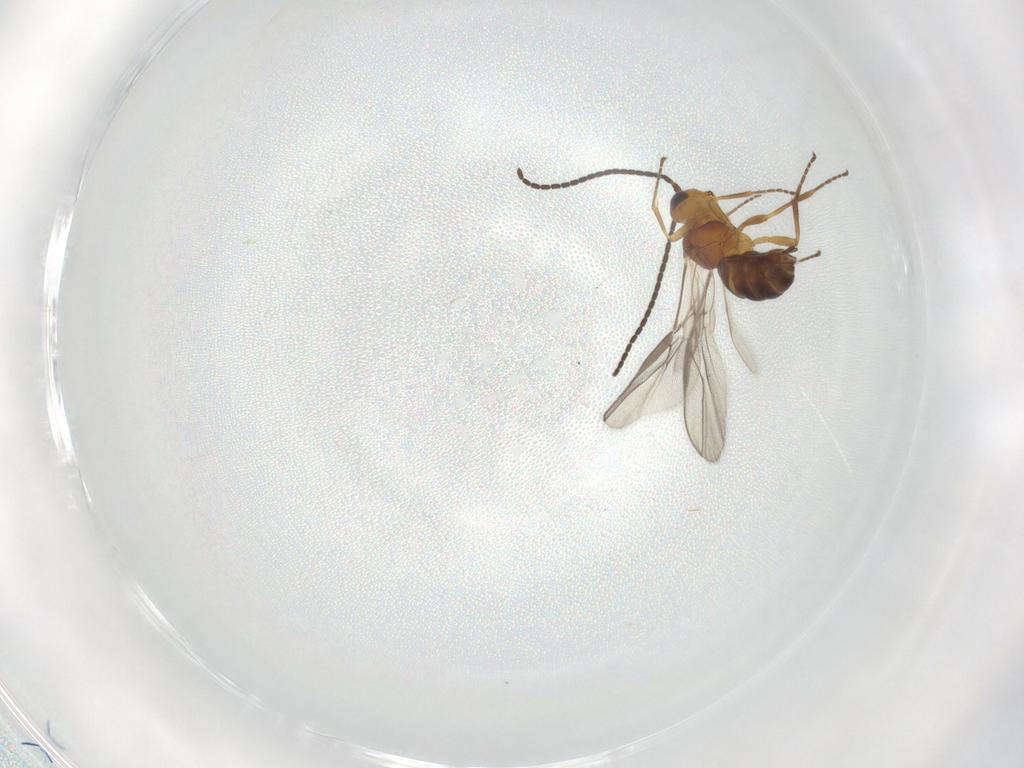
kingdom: Animalia
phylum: Arthropoda
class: Insecta
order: Hymenoptera
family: Braconidae
